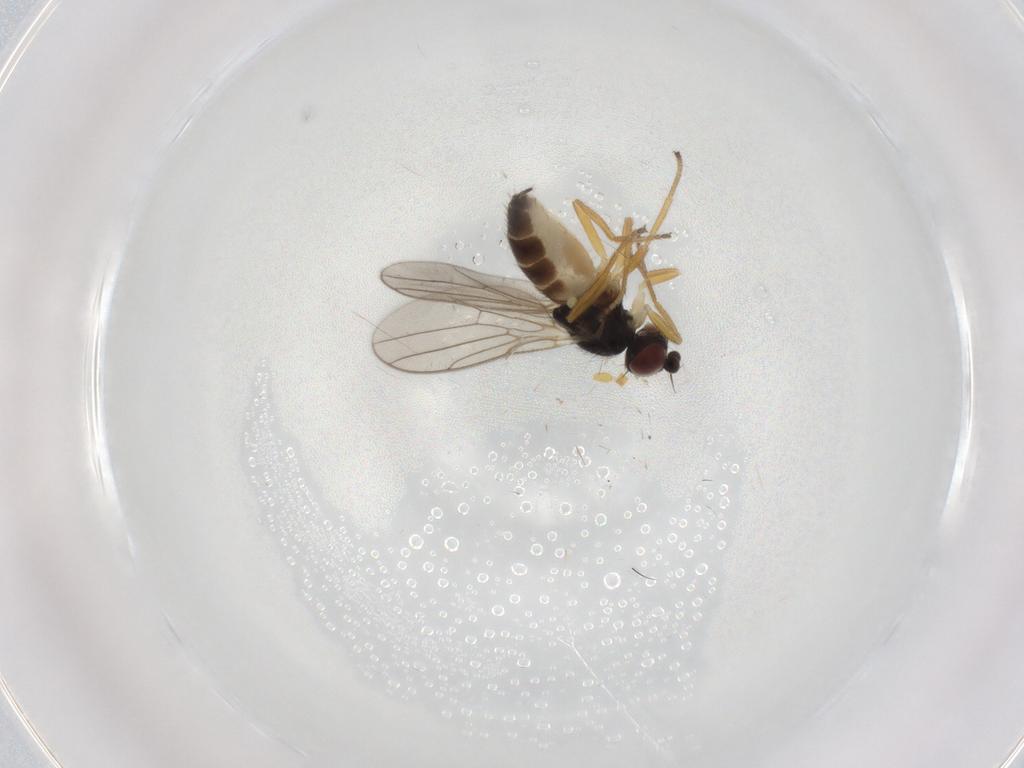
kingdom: Animalia
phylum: Arthropoda
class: Insecta
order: Diptera
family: Chloropidae
